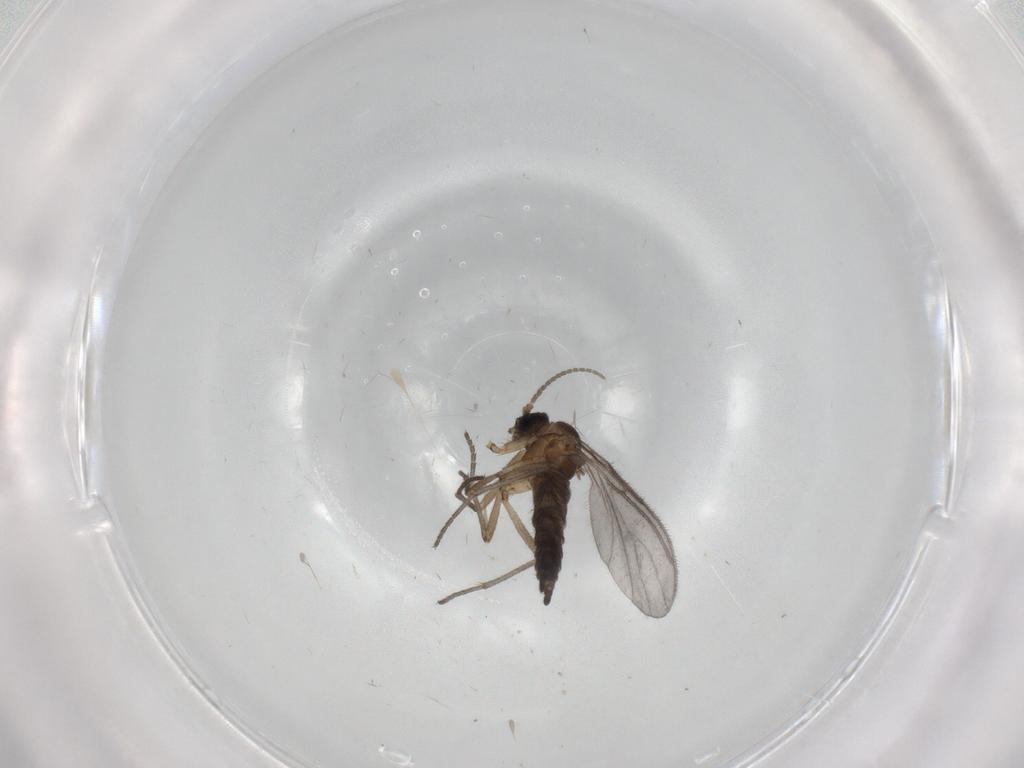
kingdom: Animalia
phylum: Arthropoda
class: Insecta
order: Diptera
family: Sciaridae
